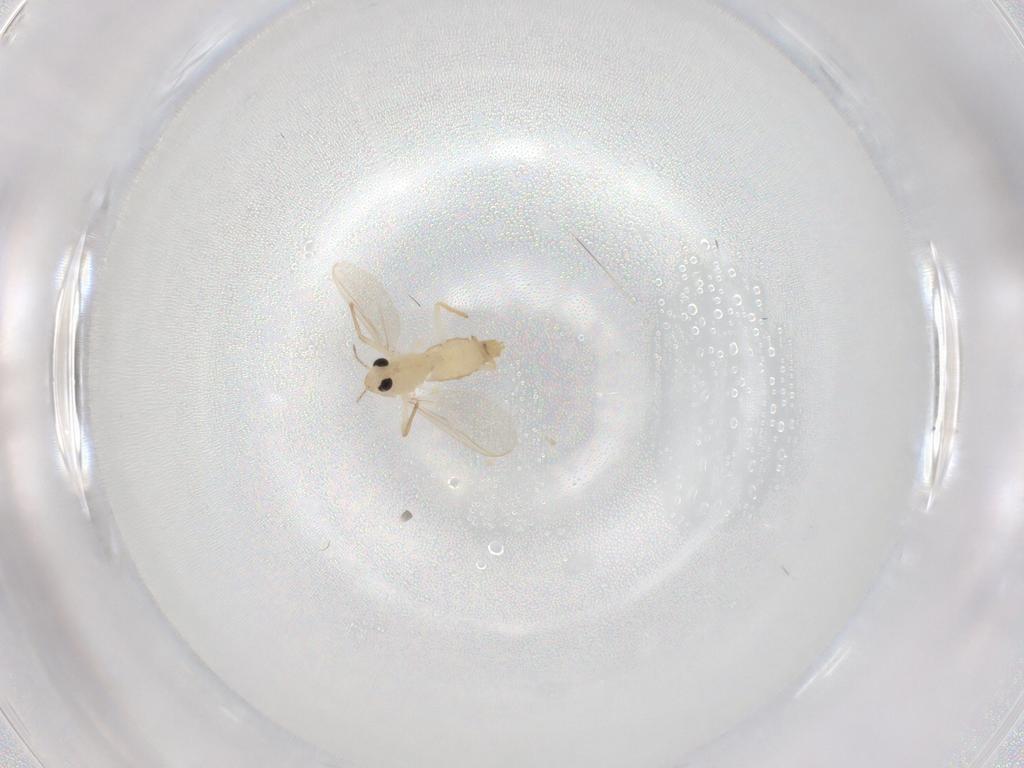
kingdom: Animalia
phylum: Arthropoda
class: Insecta
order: Diptera
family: Chironomidae
